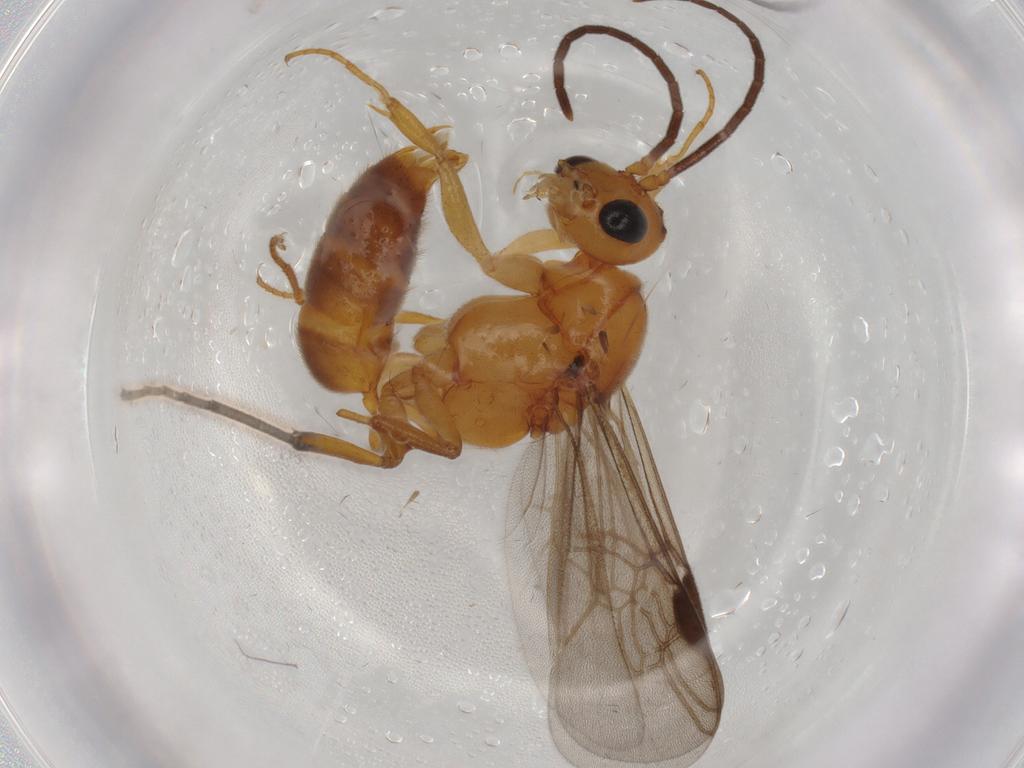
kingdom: Animalia
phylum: Arthropoda
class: Insecta
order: Hymenoptera
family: Formicidae
